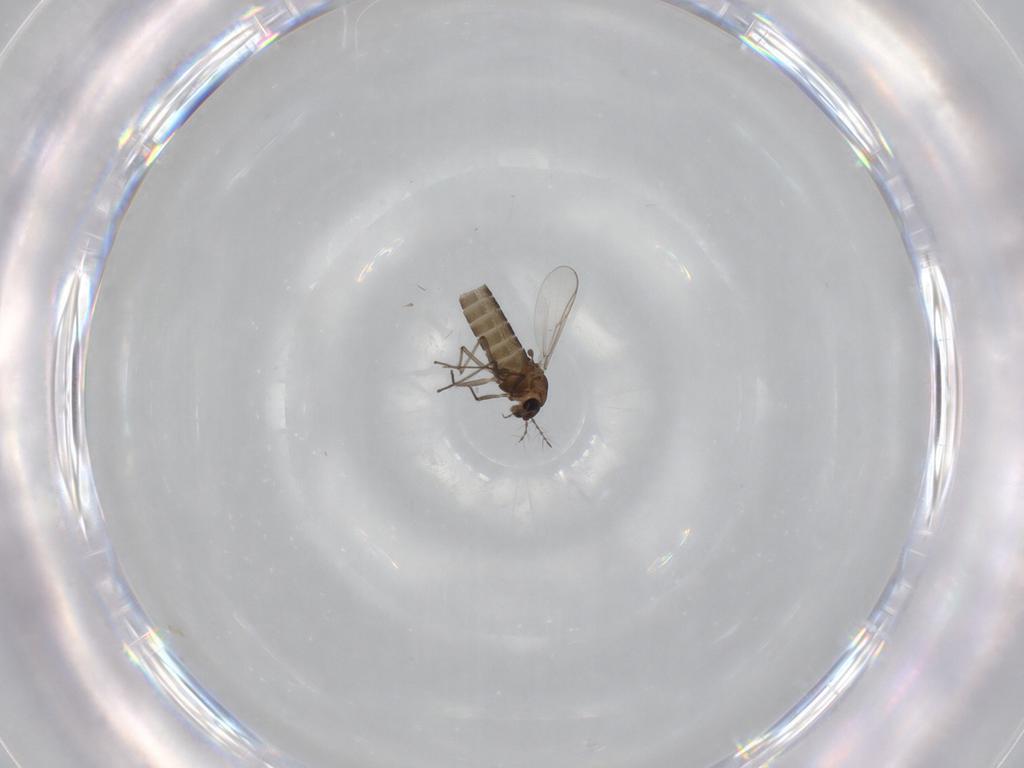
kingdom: Animalia
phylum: Arthropoda
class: Insecta
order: Diptera
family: Chironomidae
